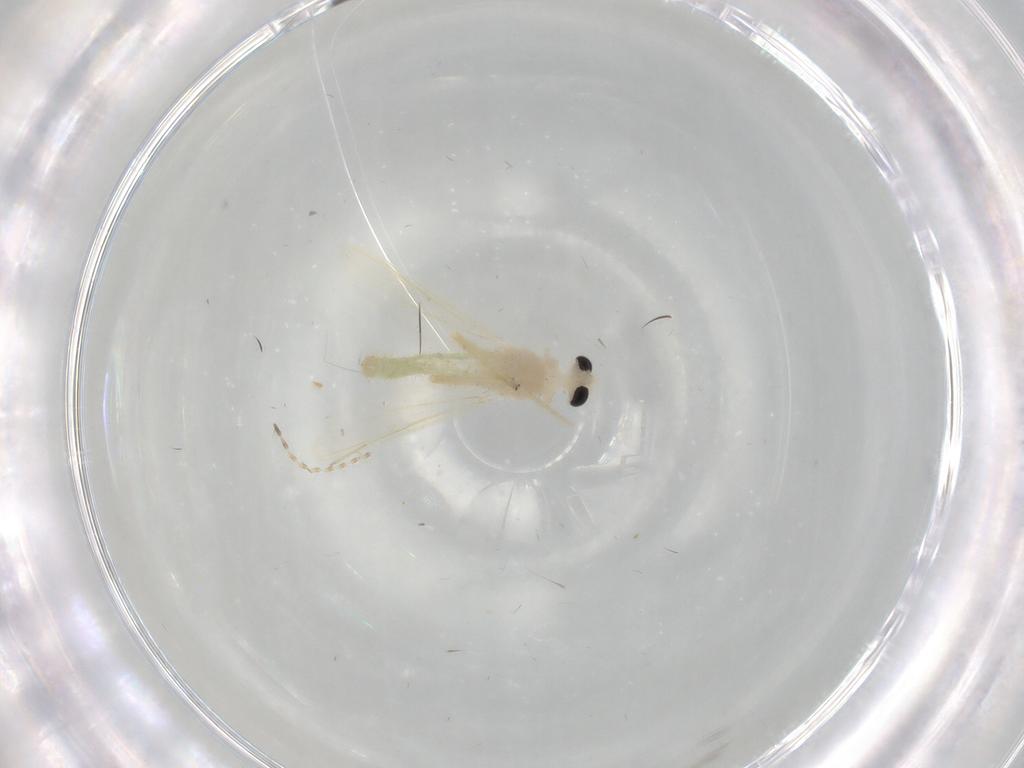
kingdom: Animalia
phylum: Arthropoda
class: Insecta
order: Diptera
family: Chironomidae
